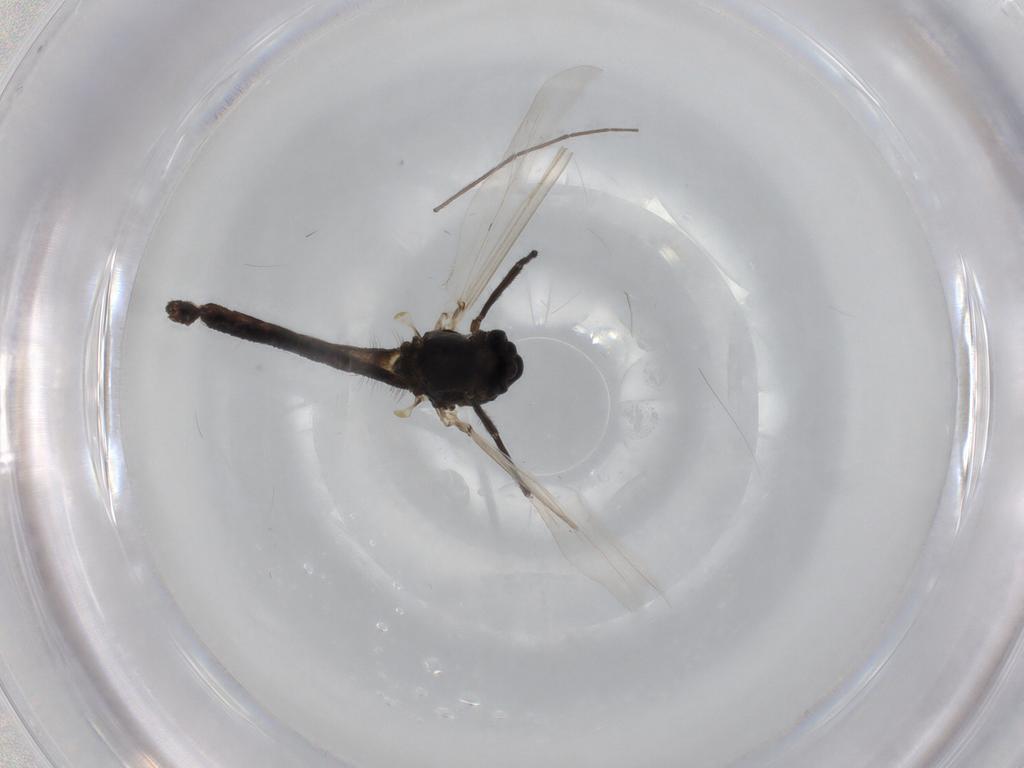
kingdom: Animalia
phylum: Arthropoda
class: Insecta
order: Diptera
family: Chironomidae
